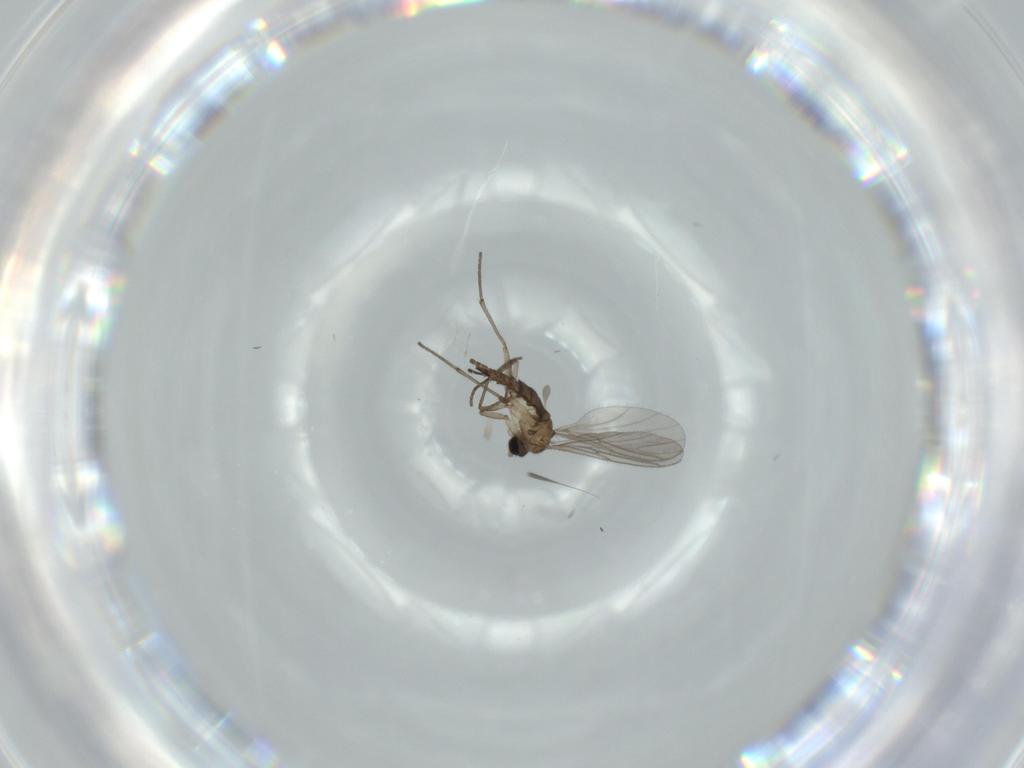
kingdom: Animalia
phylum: Arthropoda
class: Insecta
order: Diptera
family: Sciaridae
